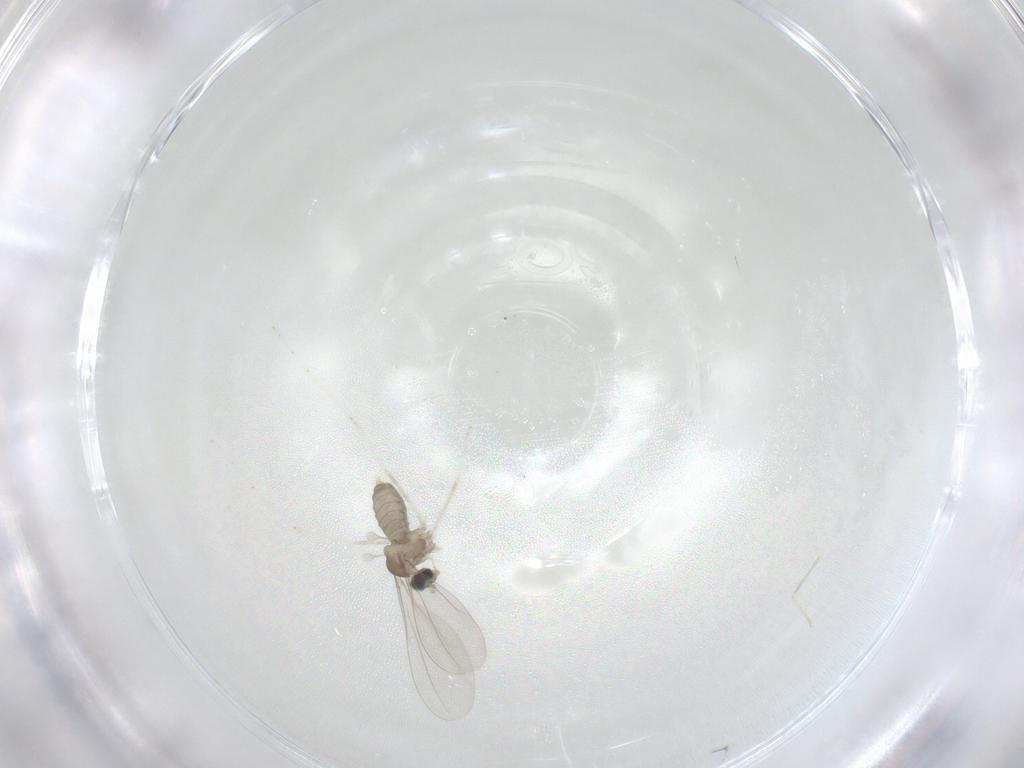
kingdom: Animalia
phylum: Arthropoda
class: Insecta
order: Diptera
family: Cecidomyiidae
